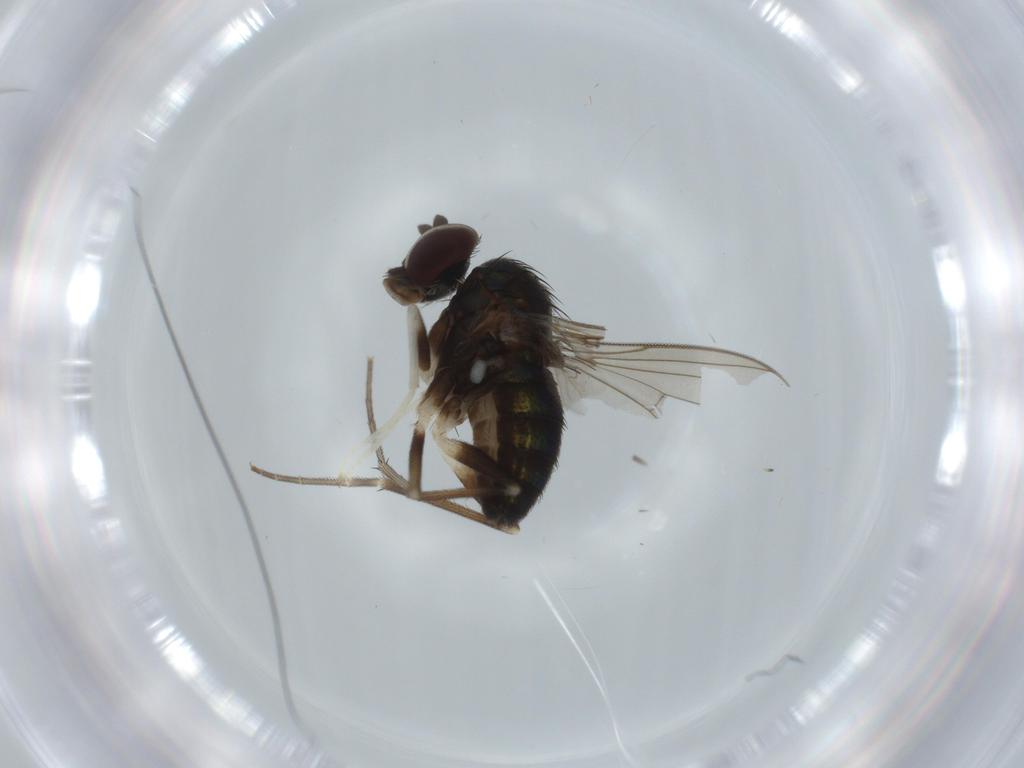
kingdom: Animalia
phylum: Arthropoda
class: Insecta
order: Diptera
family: Dolichopodidae
